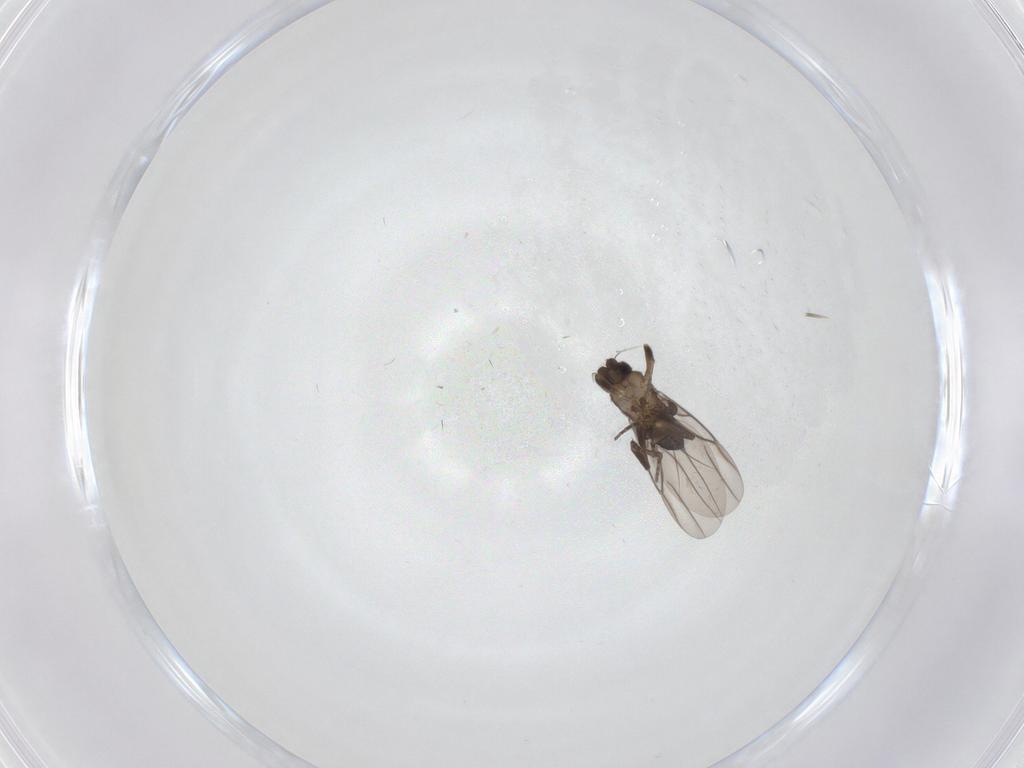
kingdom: Animalia
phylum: Arthropoda
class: Insecta
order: Diptera
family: Phoridae
